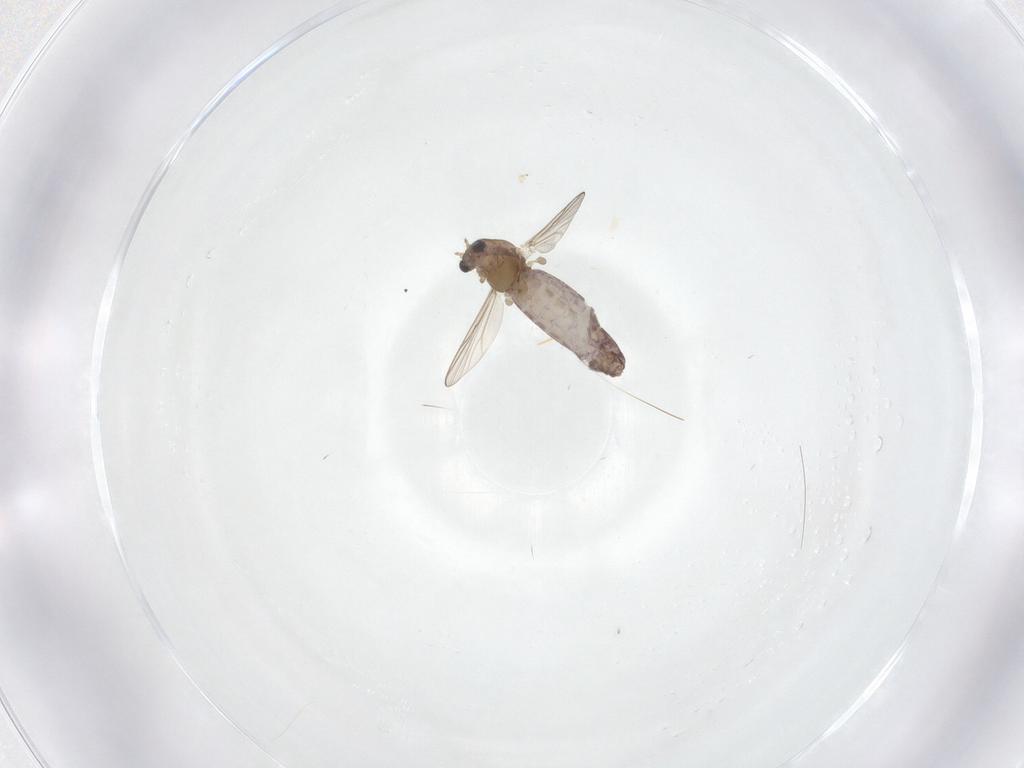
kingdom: Animalia
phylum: Arthropoda
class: Insecta
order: Diptera
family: Chironomidae
